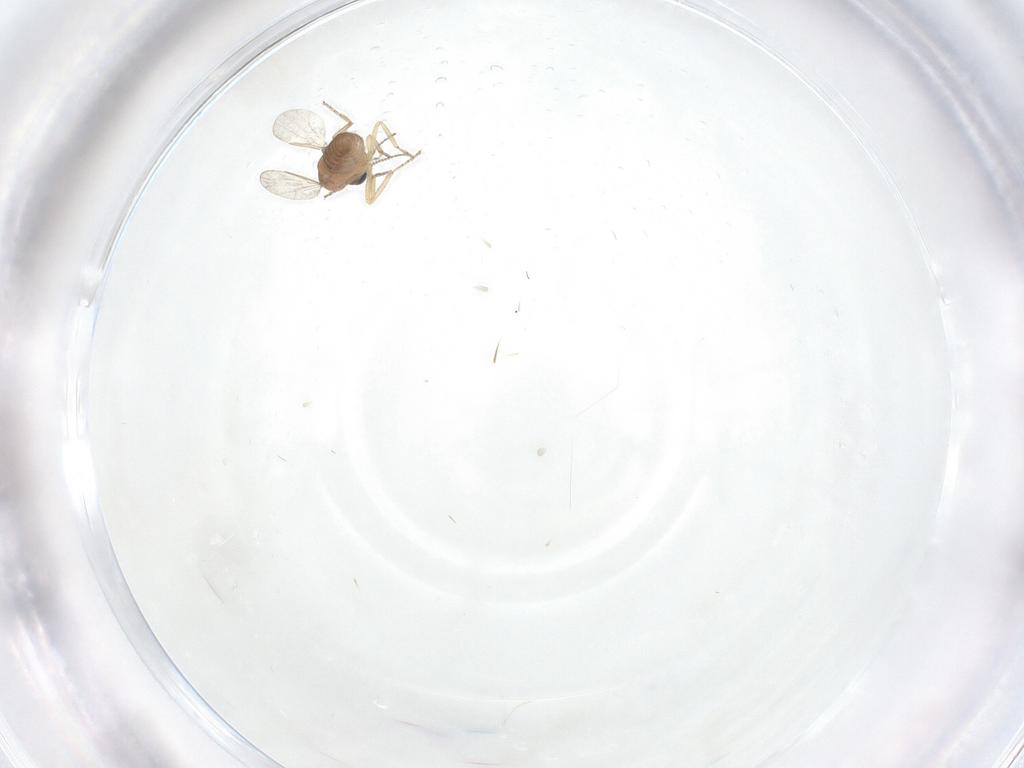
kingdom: Animalia
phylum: Arthropoda
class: Insecta
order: Diptera
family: Ceratopogonidae
